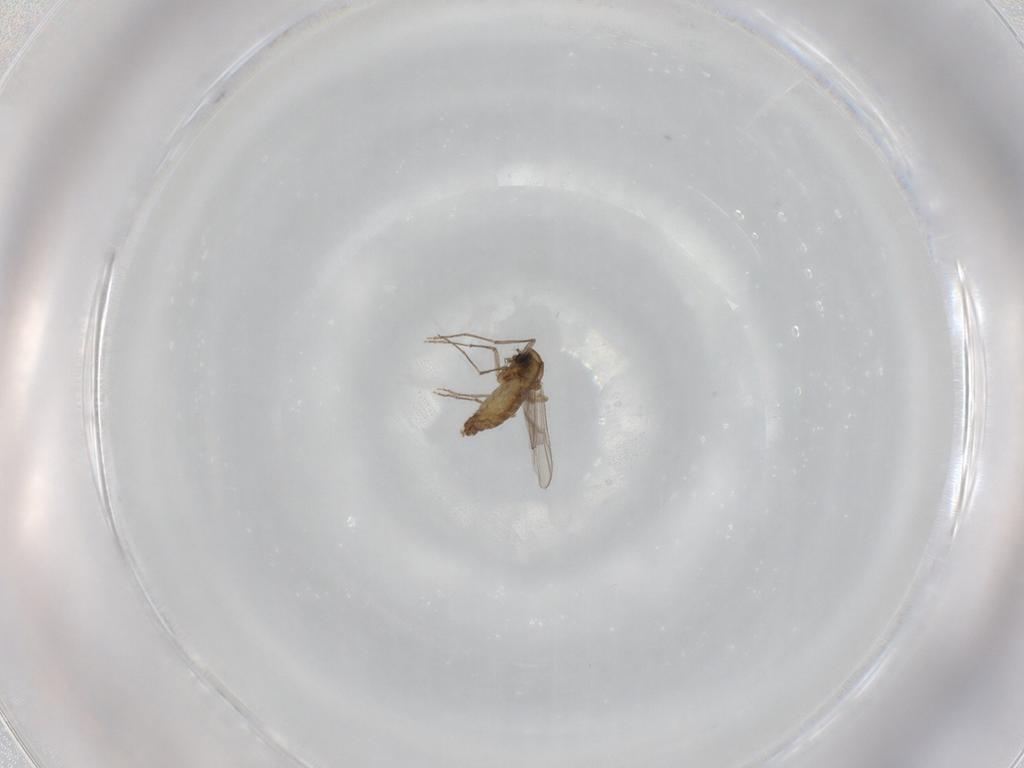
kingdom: Animalia
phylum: Arthropoda
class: Insecta
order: Diptera
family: Chironomidae
